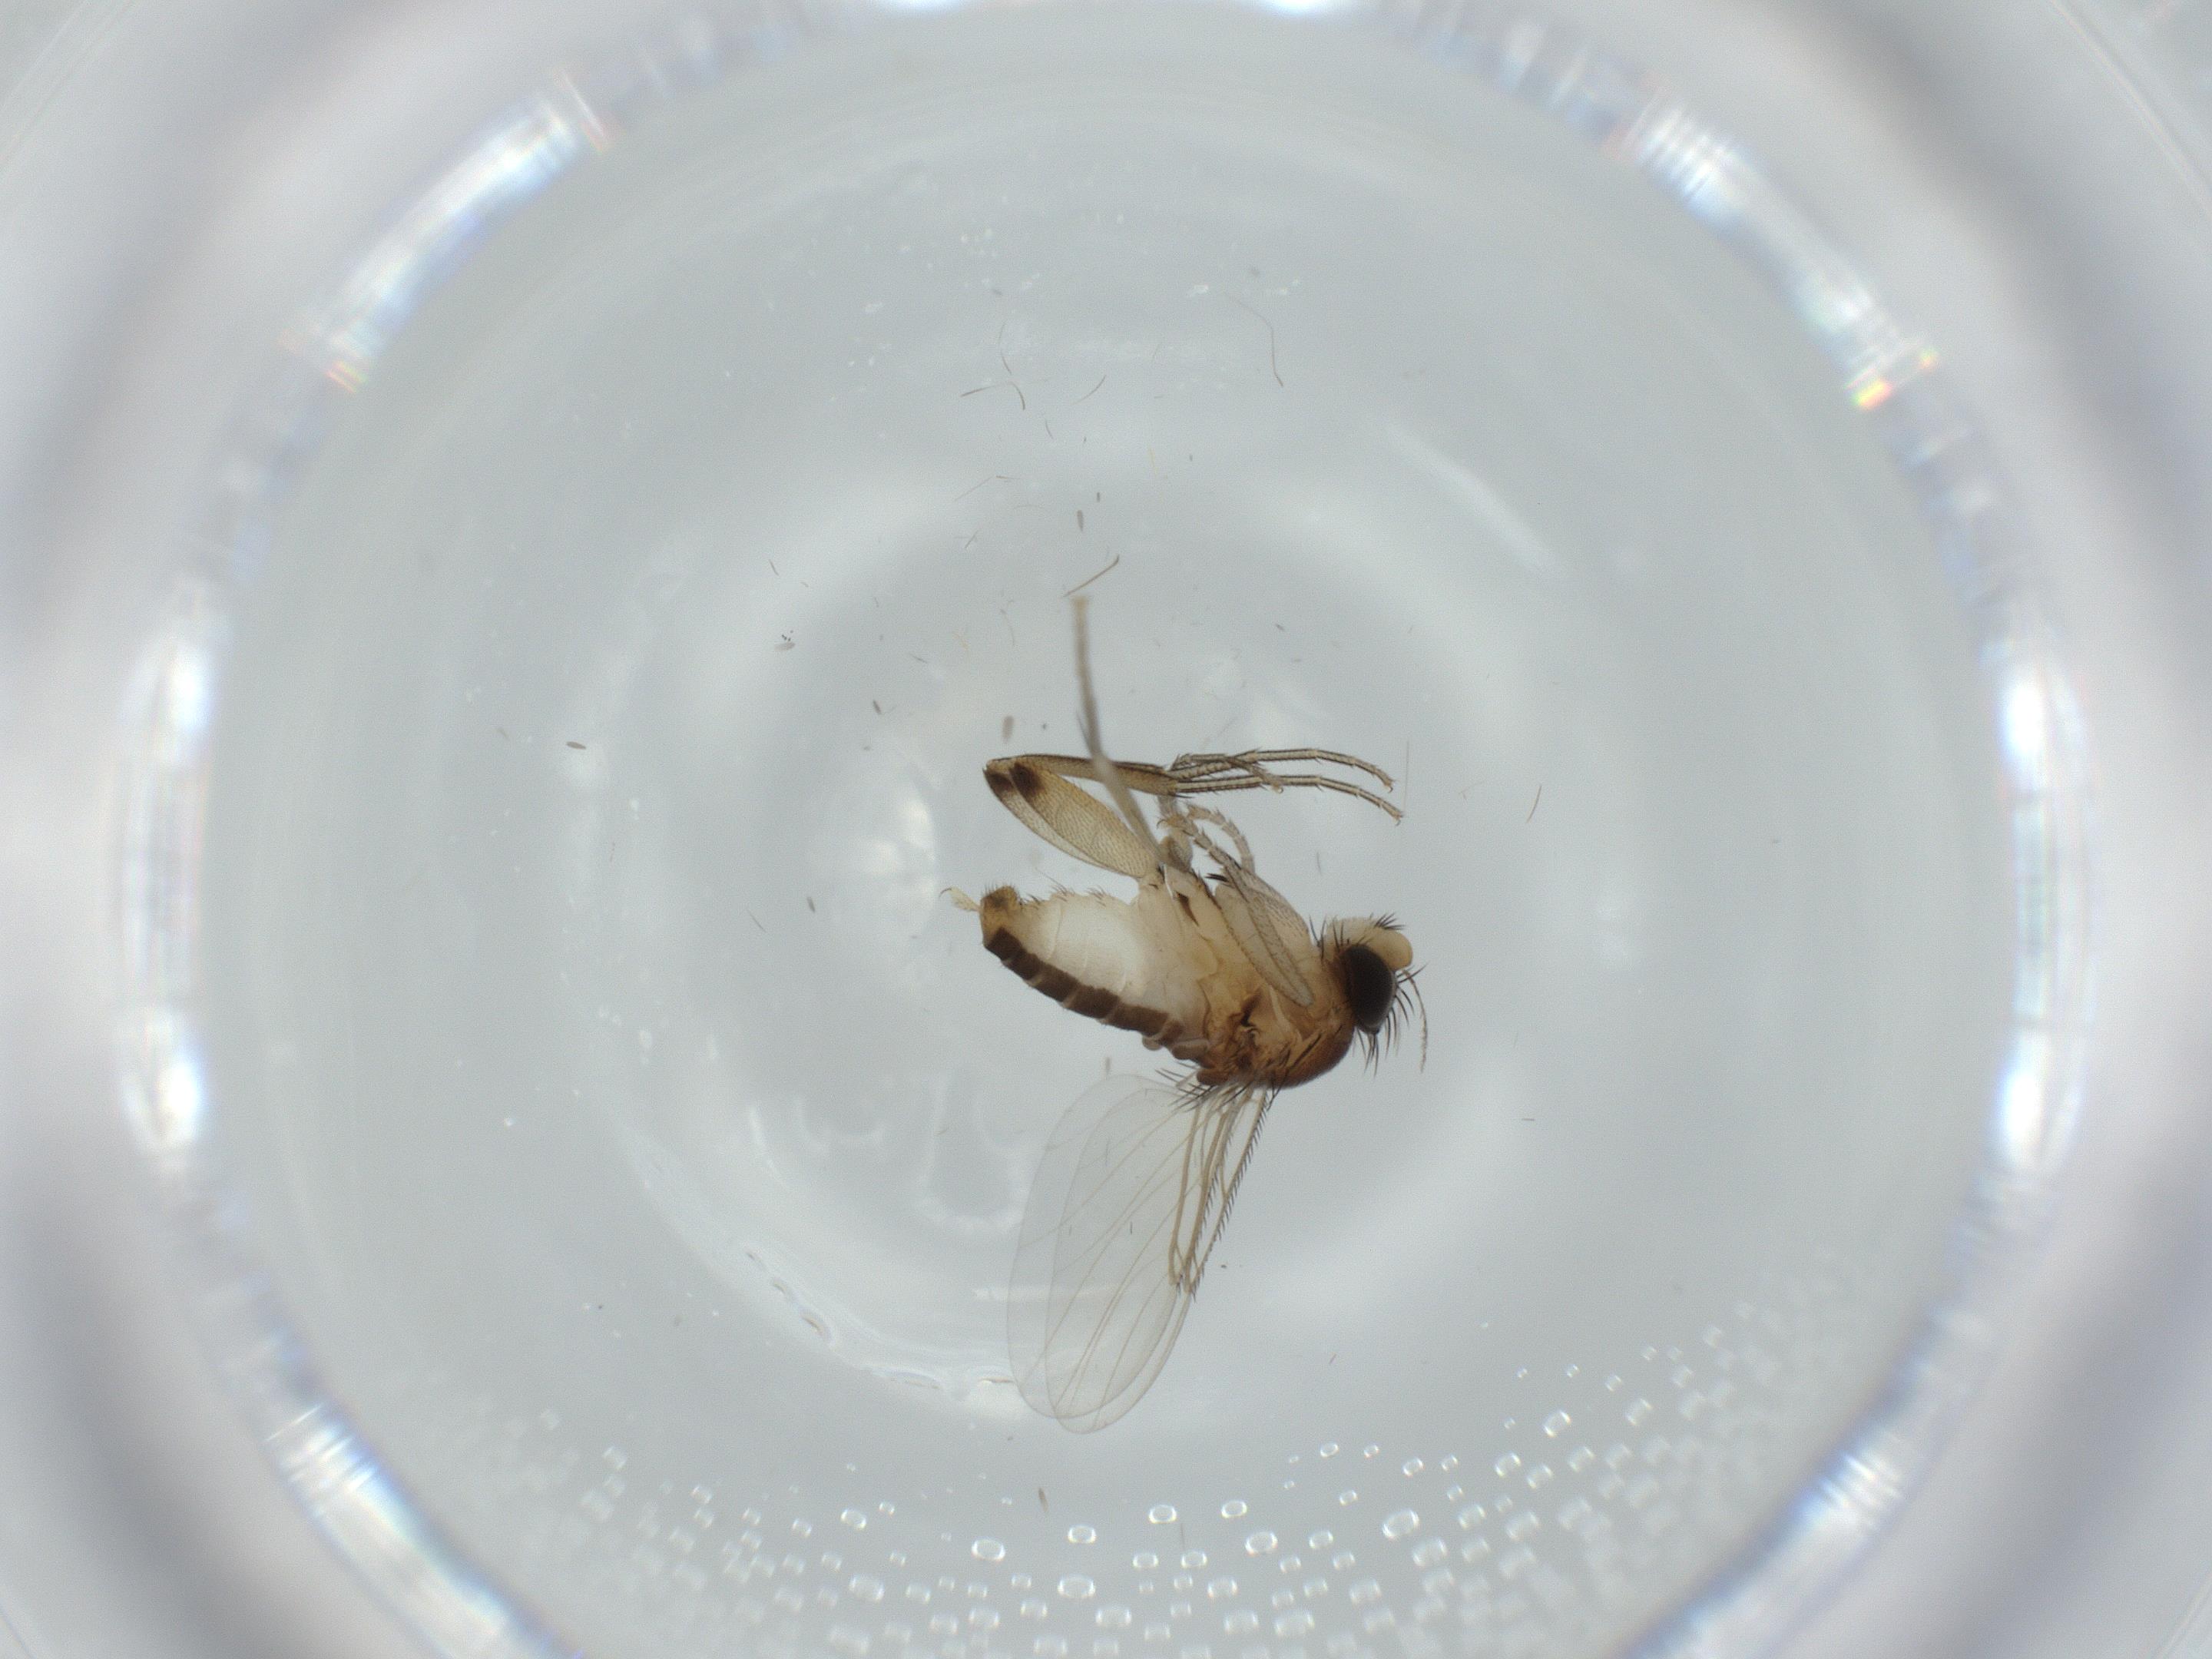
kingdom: Animalia
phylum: Arthropoda
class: Insecta
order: Diptera
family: Phoridae
